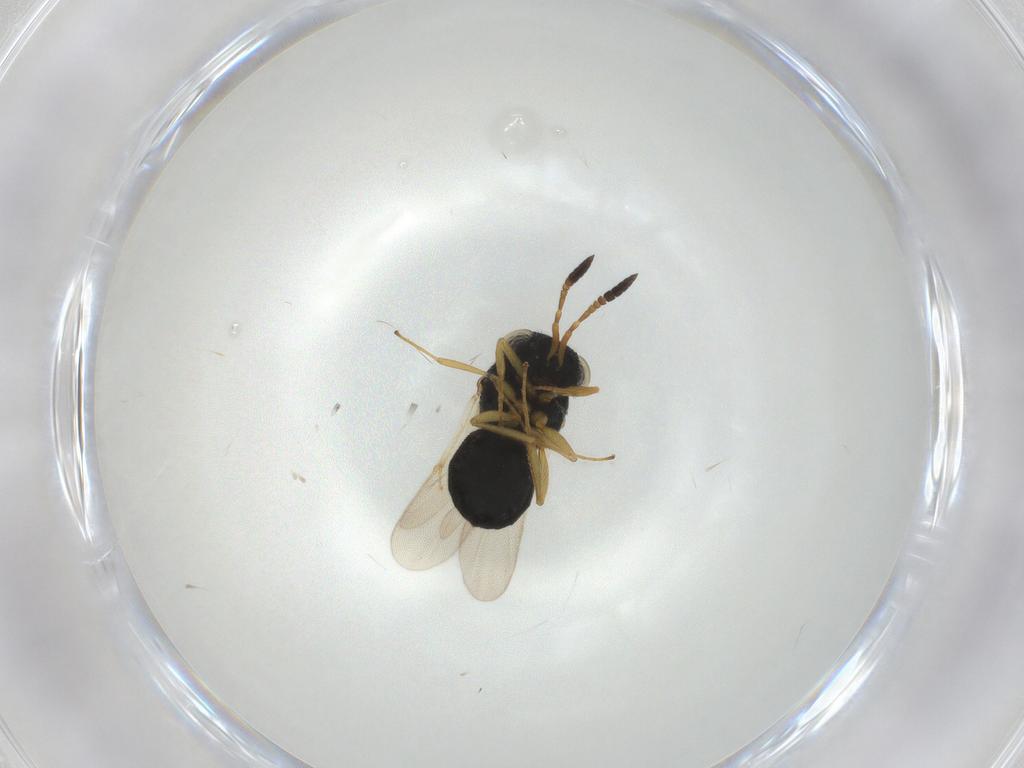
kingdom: Animalia
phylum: Arthropoda
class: Insecta
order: Hymenoptera
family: Scelionidae
